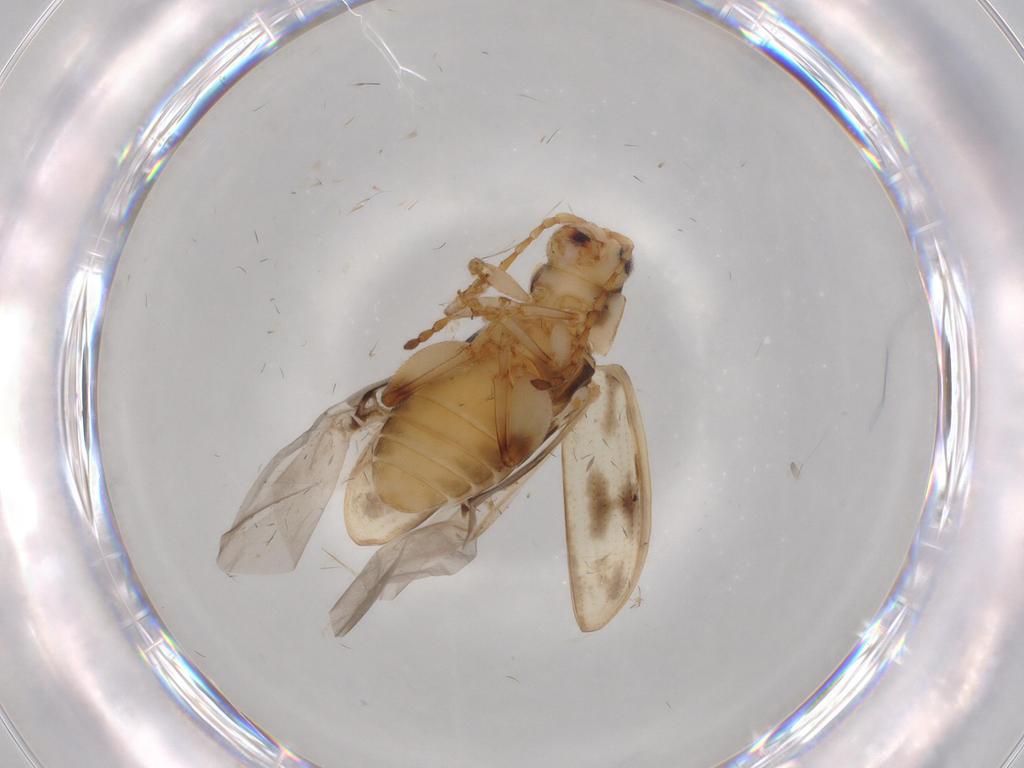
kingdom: Animalia
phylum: Arthropoda
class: Insecta
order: Coleoptera
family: Chrysomelidae
